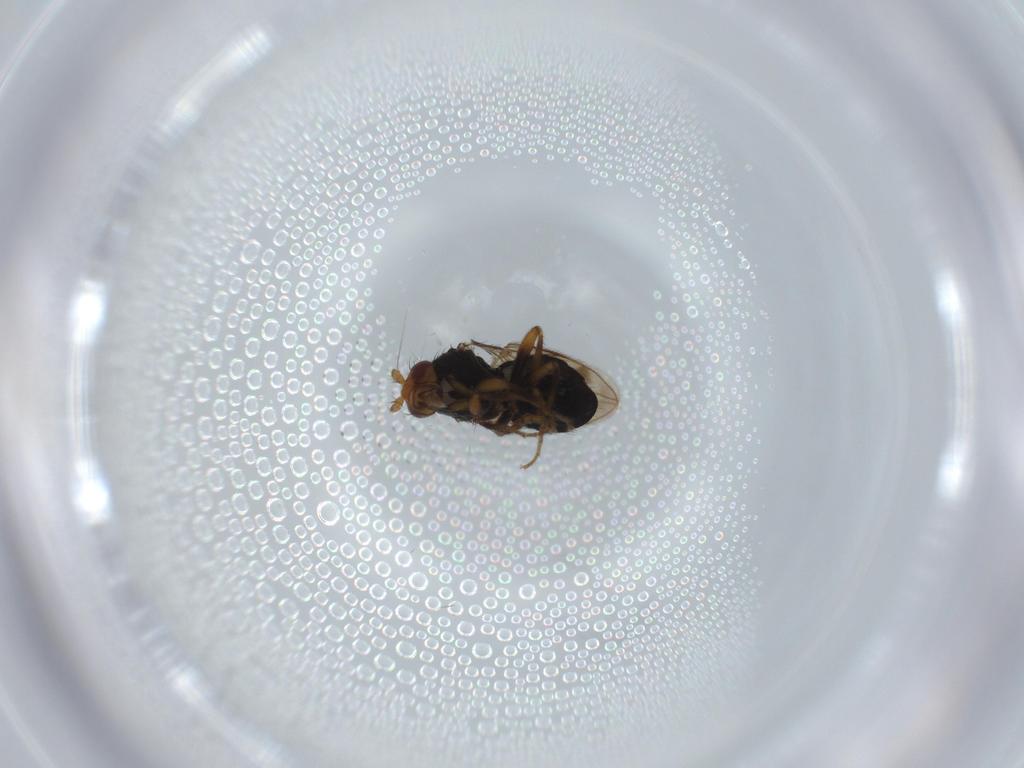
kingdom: Animalia
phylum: Arthropoda
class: Insecta
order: Diptera
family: Sphaeroceridae
